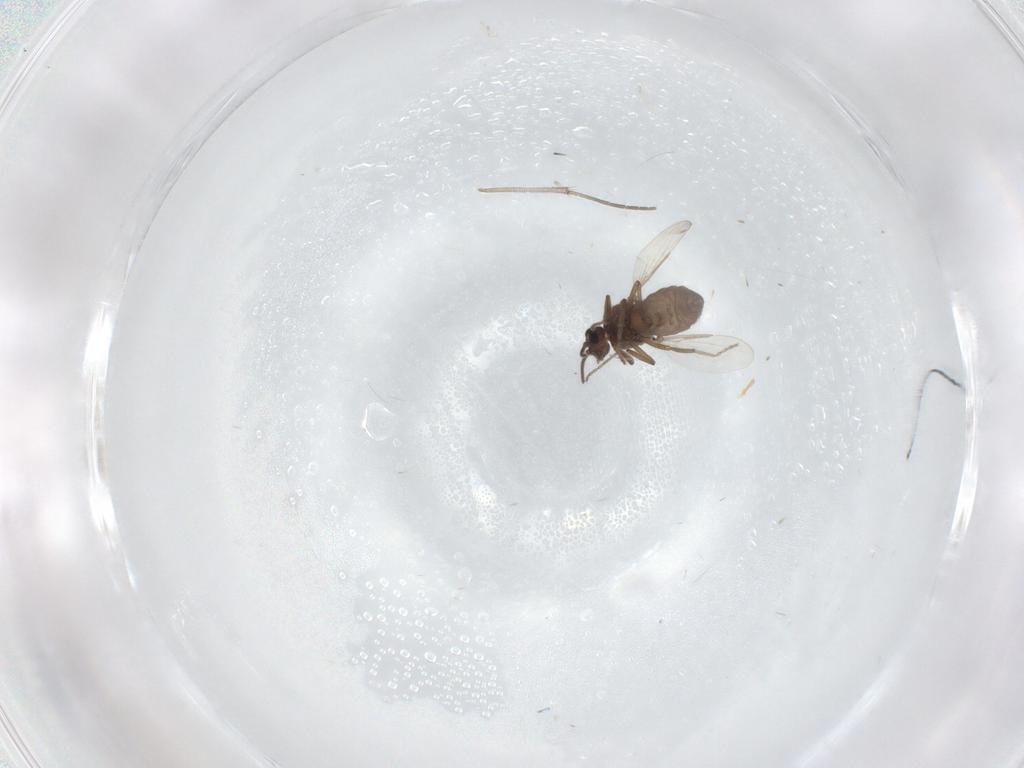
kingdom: Animalia
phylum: Arthropoda
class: Insecta
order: Diptera
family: Ceratopogonidae
